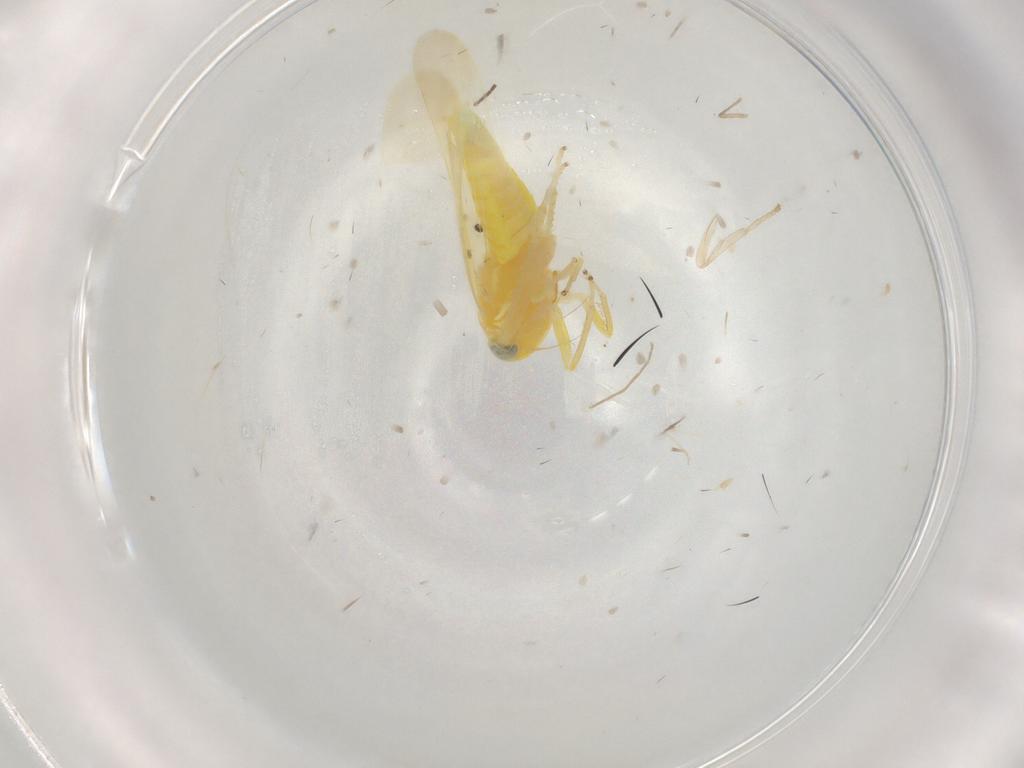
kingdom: Animalia
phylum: Arthropoda
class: Insecta
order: Hemiptera
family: Cicadellidae
